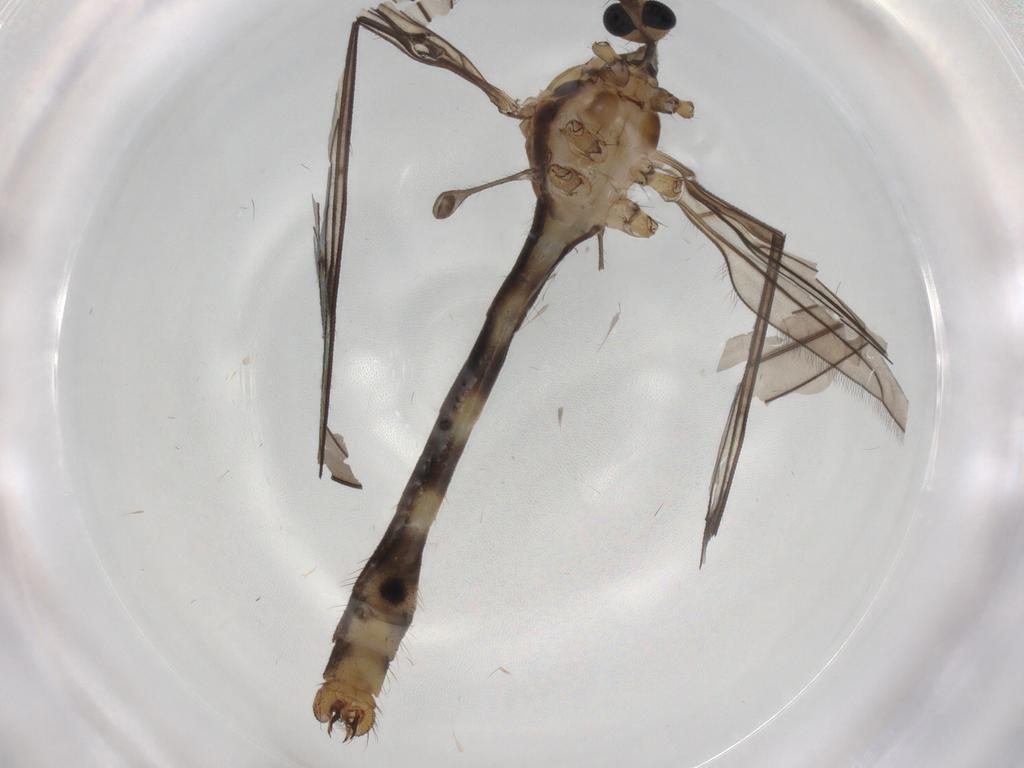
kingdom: Animalia
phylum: Arthropoda
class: Insecta
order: Diptera
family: Limoniidae
